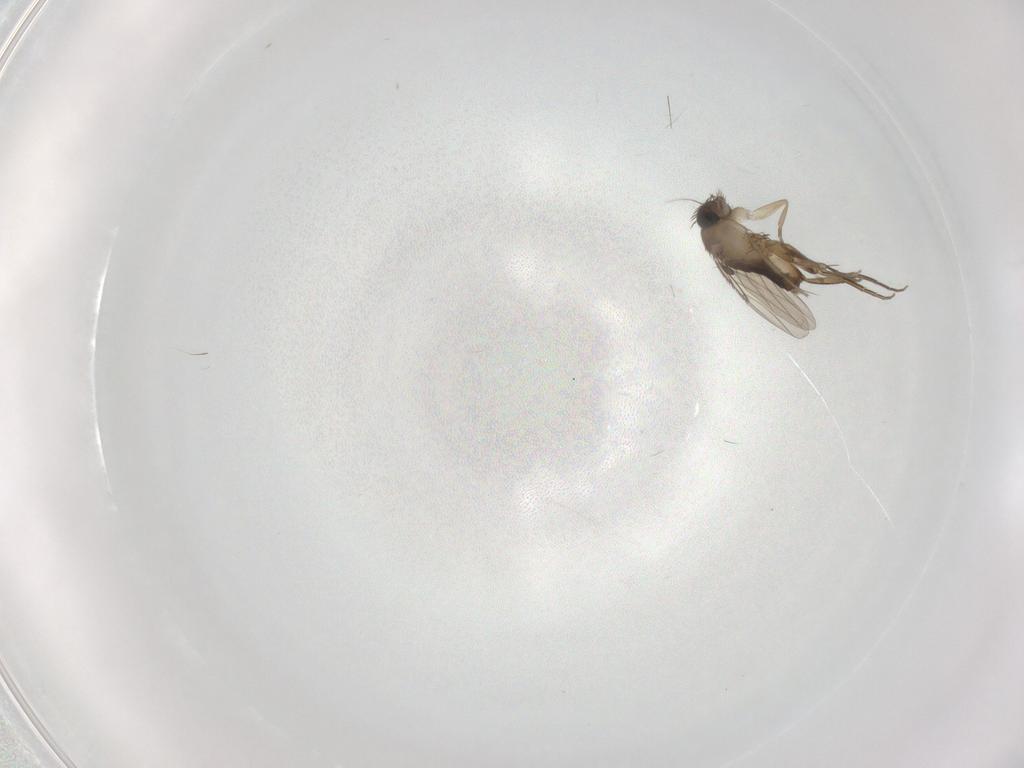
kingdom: Animalia
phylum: Arthropoda
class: Insecta
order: Diptera
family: Phoridae
